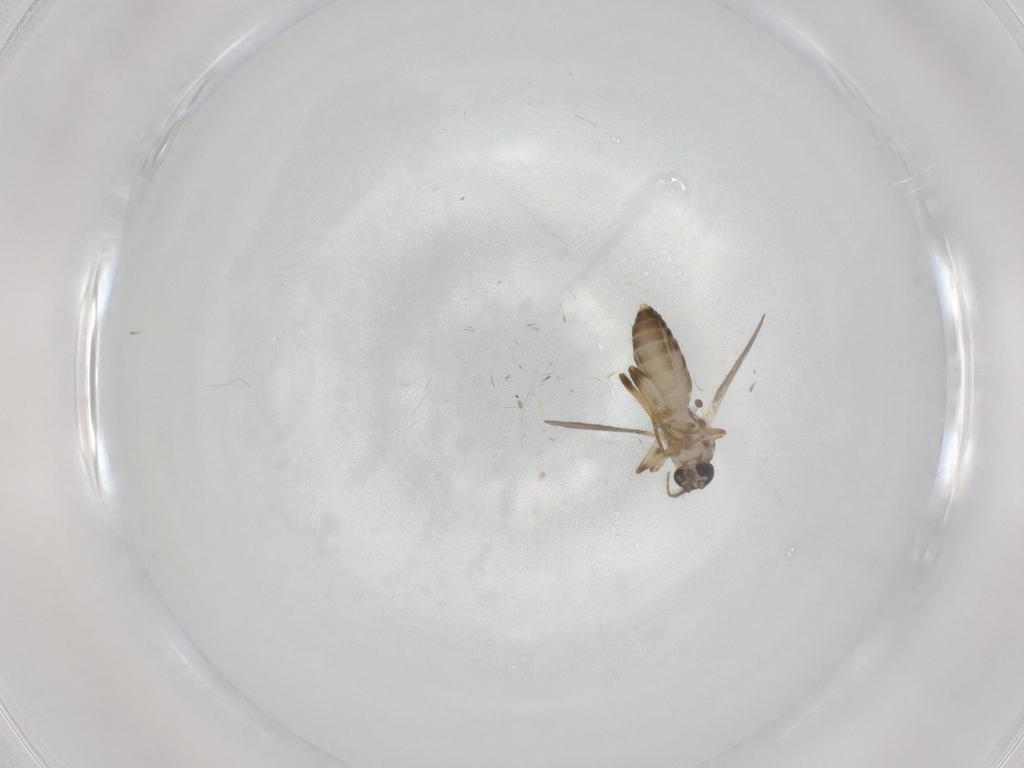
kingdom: Animalia
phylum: Arthropoda
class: Insecta
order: Diptera
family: Ceratopogonidae
